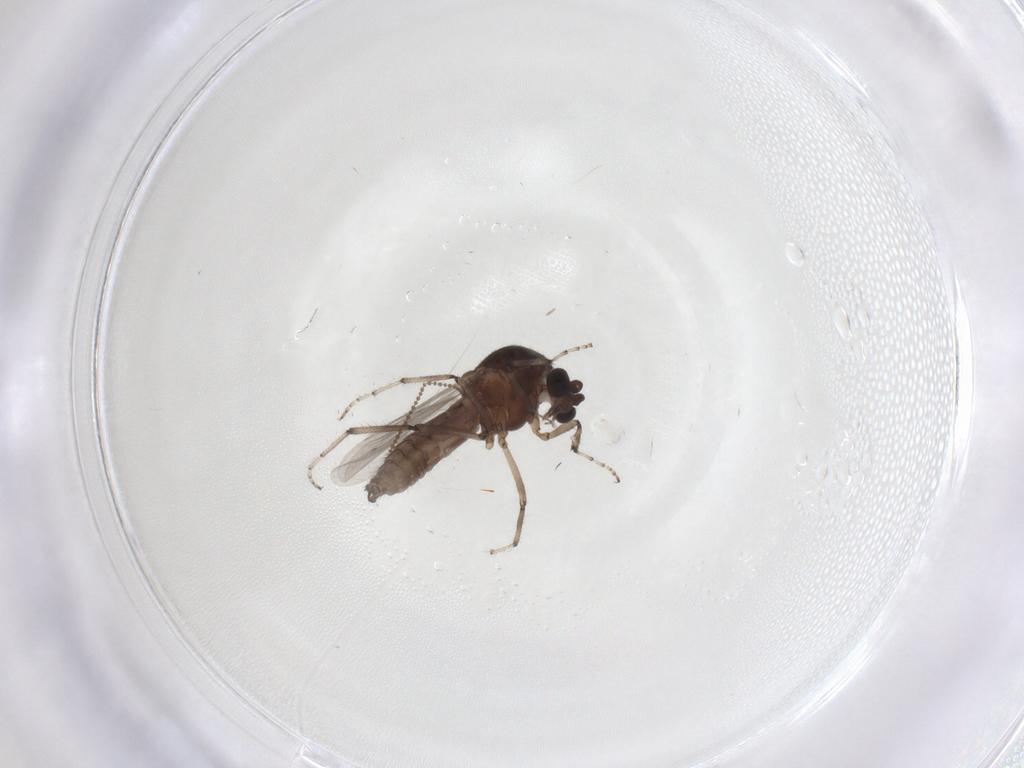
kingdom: Animalia
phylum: Arthropoda
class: Insecta
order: Diptera
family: Ceratopogonidae
